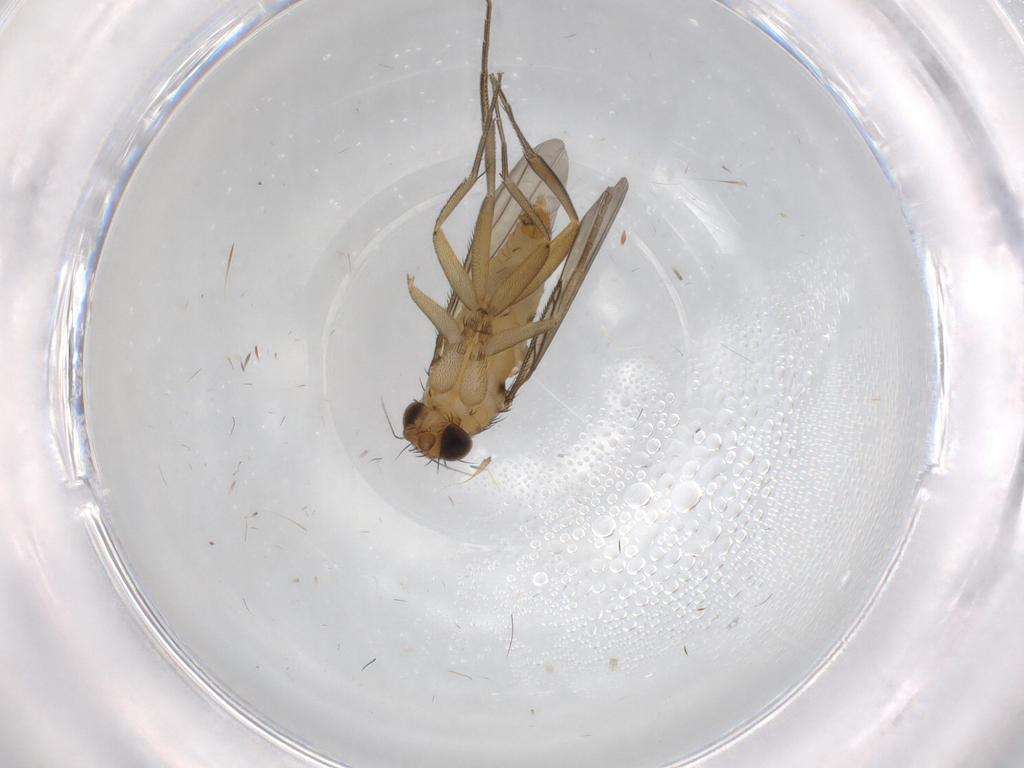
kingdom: Animalia
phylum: Arthropoda
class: Insecta
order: Diptera
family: Phoridae
